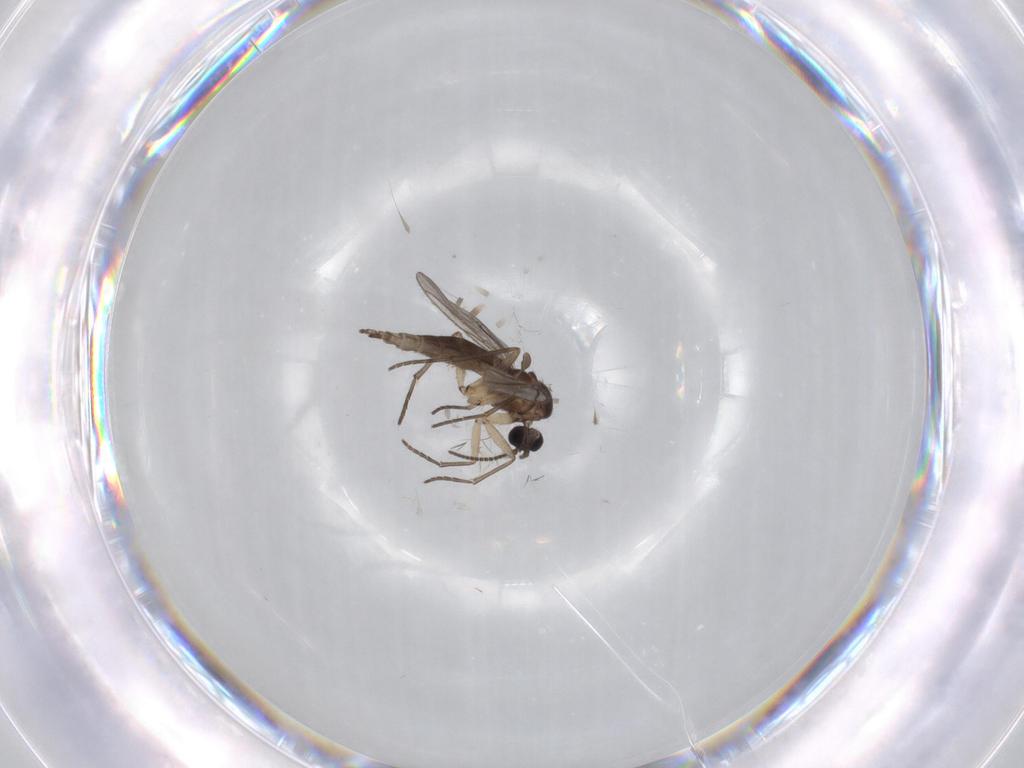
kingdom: Animalia
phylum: Arthropoda
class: Insecta
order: Diptera
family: Sciaridae
